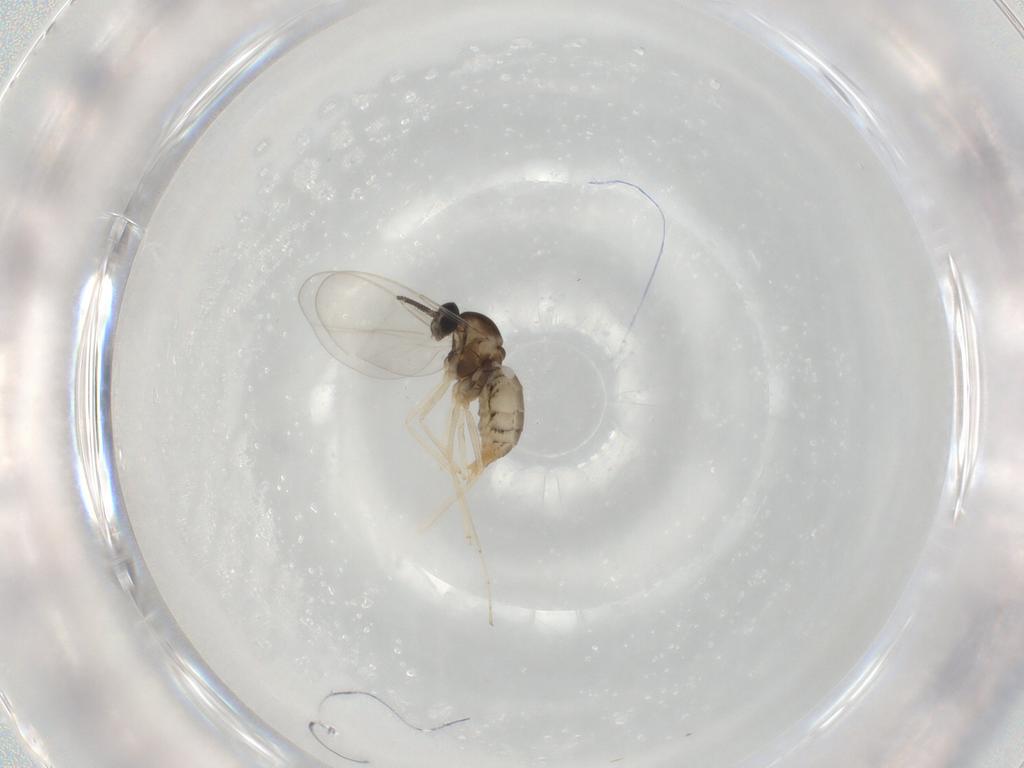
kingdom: Animalia
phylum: Arthropoda
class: Insecta
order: Diptera
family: Cecidomyiidae
